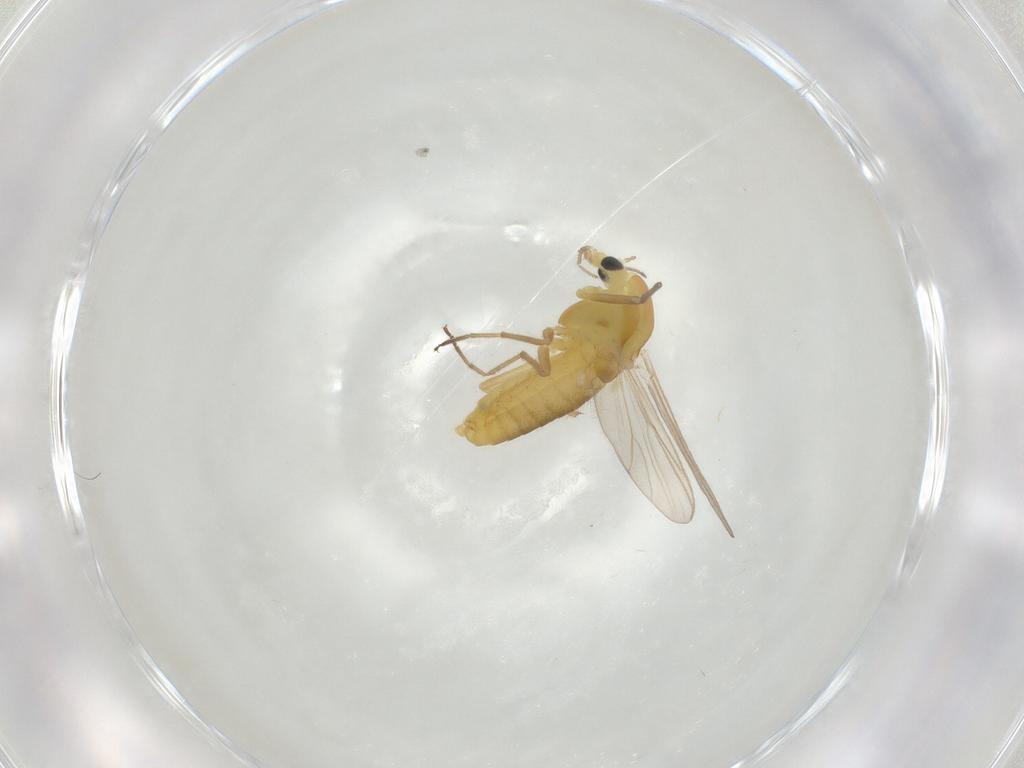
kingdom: Animalia
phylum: Arthropoda
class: Insecta
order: Diptera
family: Chironomidae
